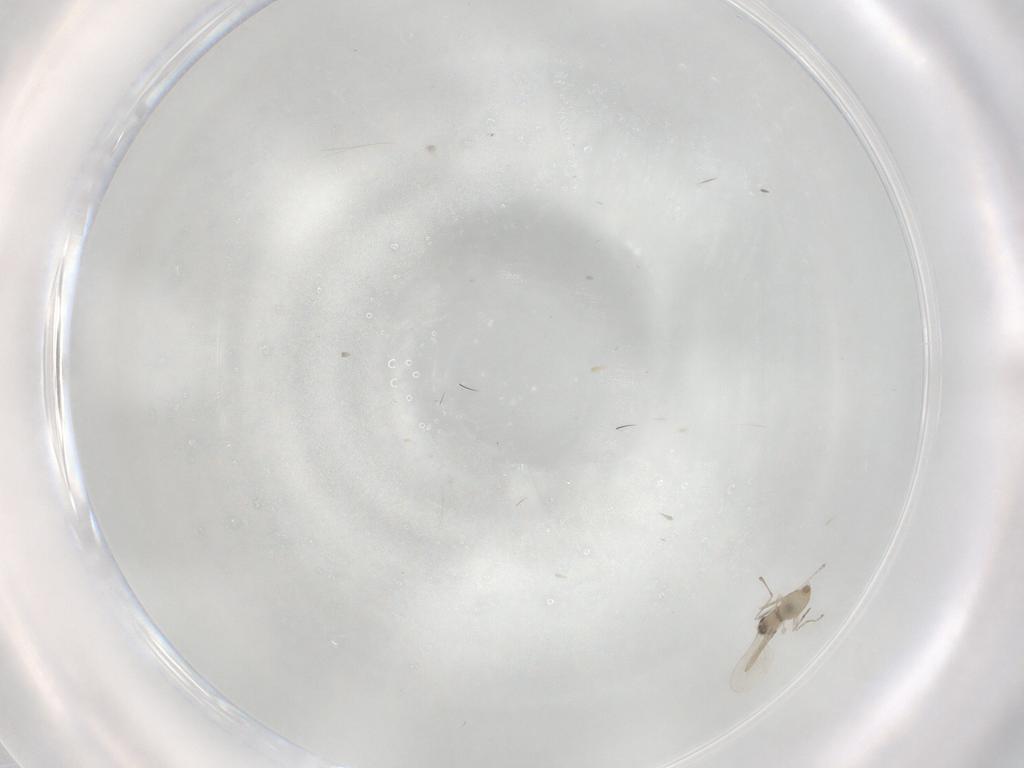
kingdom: Animalia
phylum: Arthropoda
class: Insecta
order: Diptera
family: Cecidomyiidae
